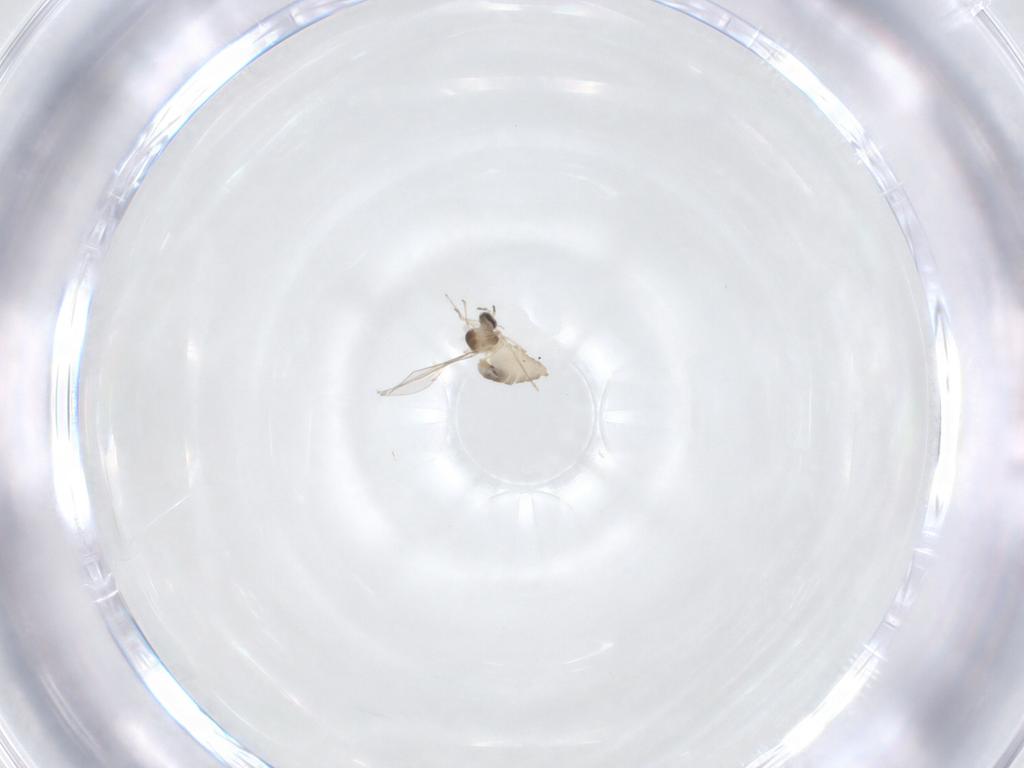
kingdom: Animalia
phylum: Arthropoda
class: Insecta
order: Diptera
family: Cecidomyiidae
